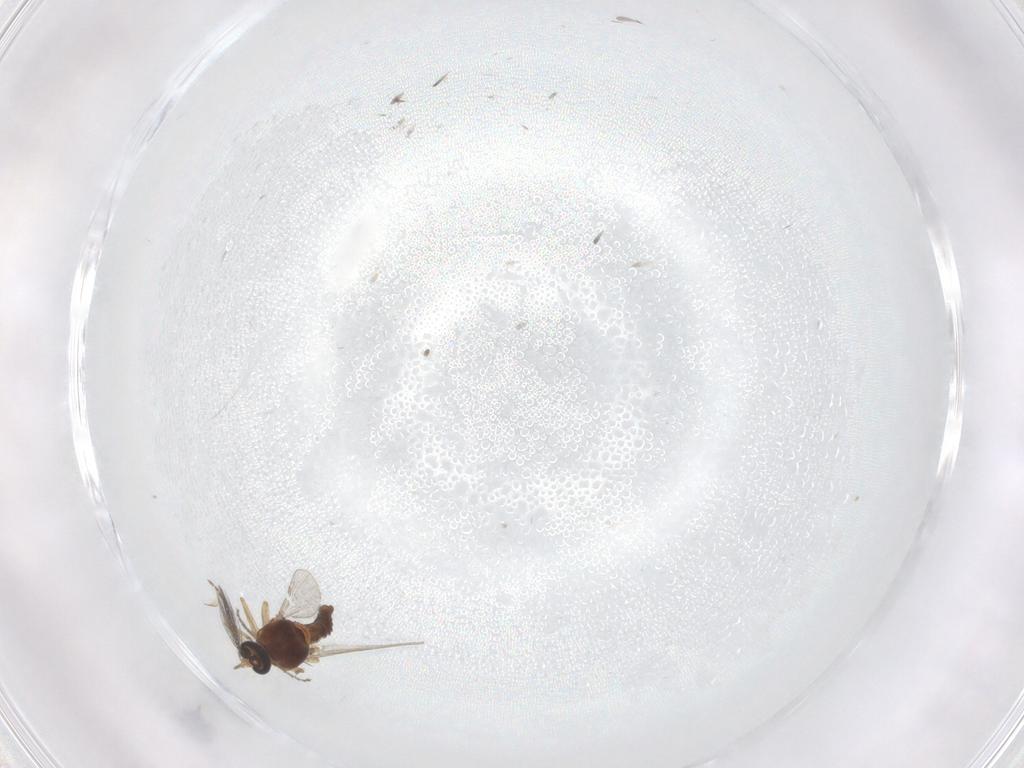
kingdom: Animalia
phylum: Arthropoda
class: Insecta
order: Diptera
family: Ceratopogonidae
